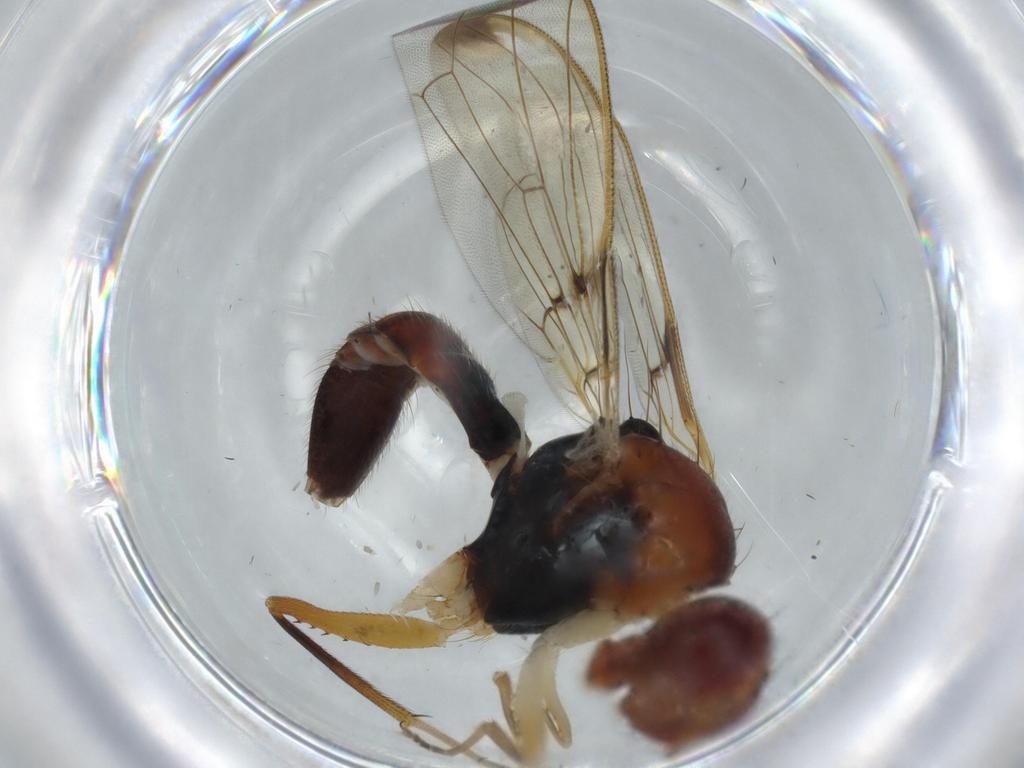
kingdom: Animalia
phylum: Arthropoda
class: Insecta
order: Diptera
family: Richardiidae
